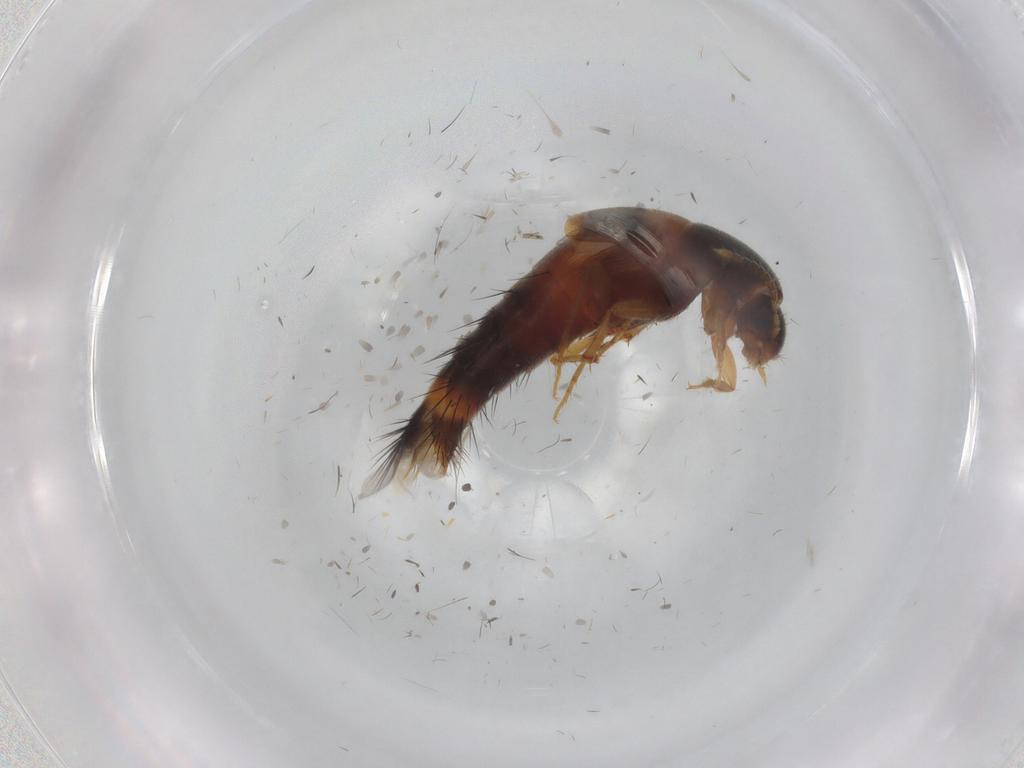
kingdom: Animalia
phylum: Arthropoda
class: Insecta
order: Coleoptera
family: Staphylinidae
